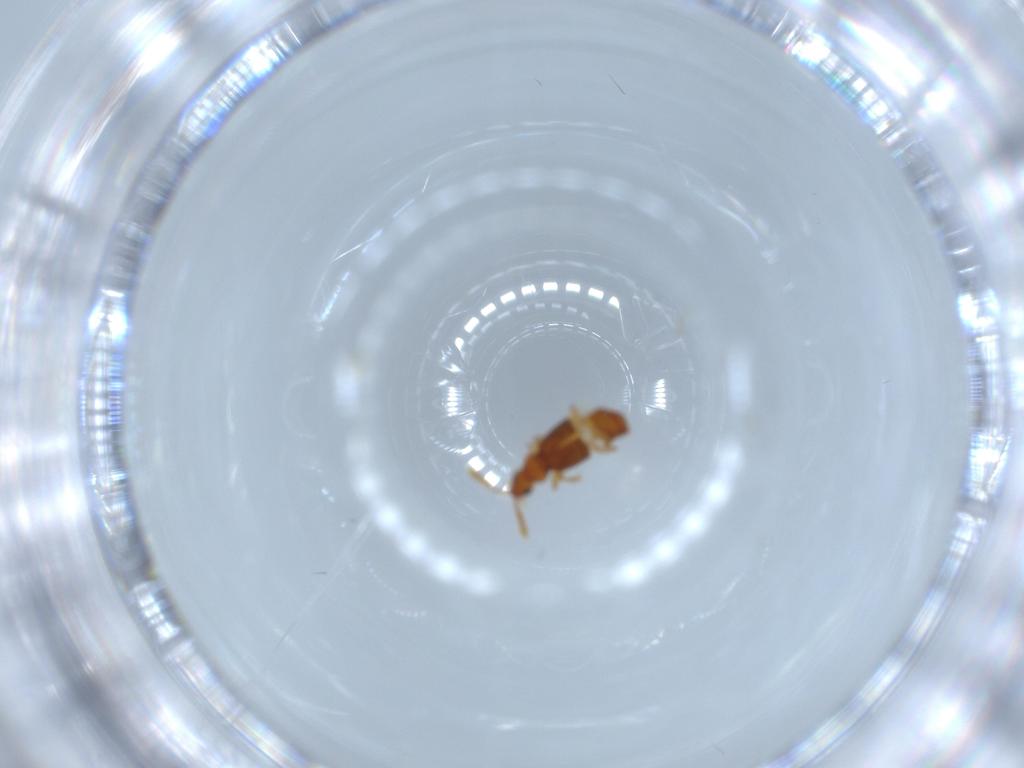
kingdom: Animalia
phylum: Arthropoda
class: Insecta
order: Coleoptera
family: Staphylinidae
